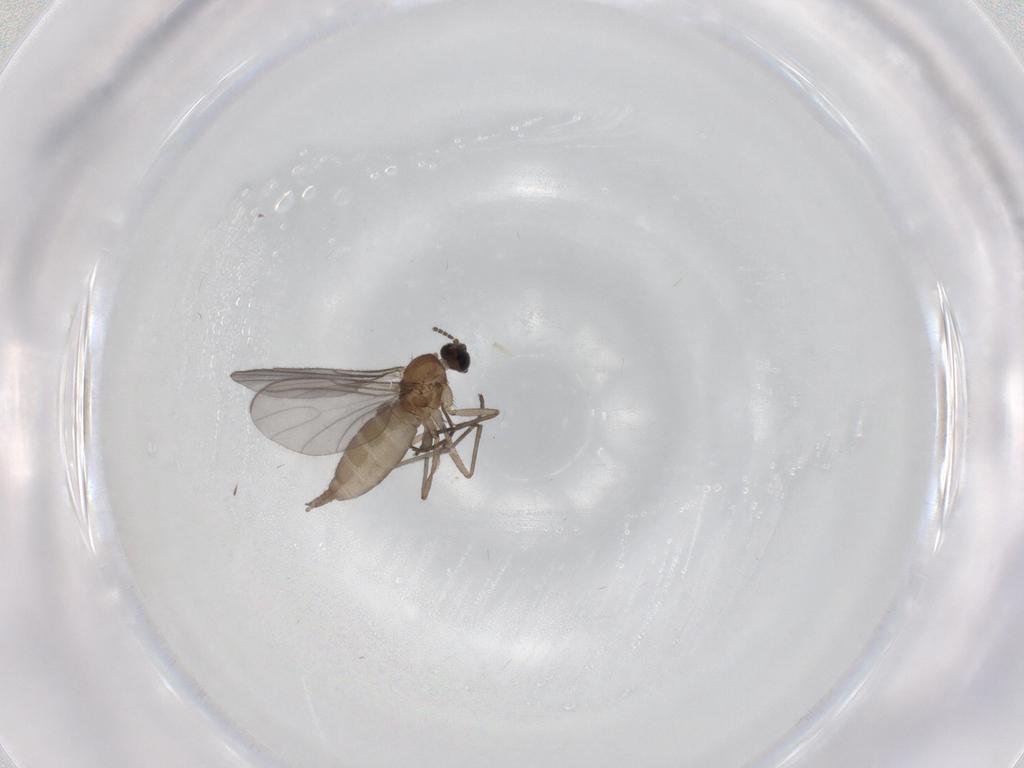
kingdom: Animalia
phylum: Arthropoda
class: Insecta
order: Diptera
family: Sciaridae
